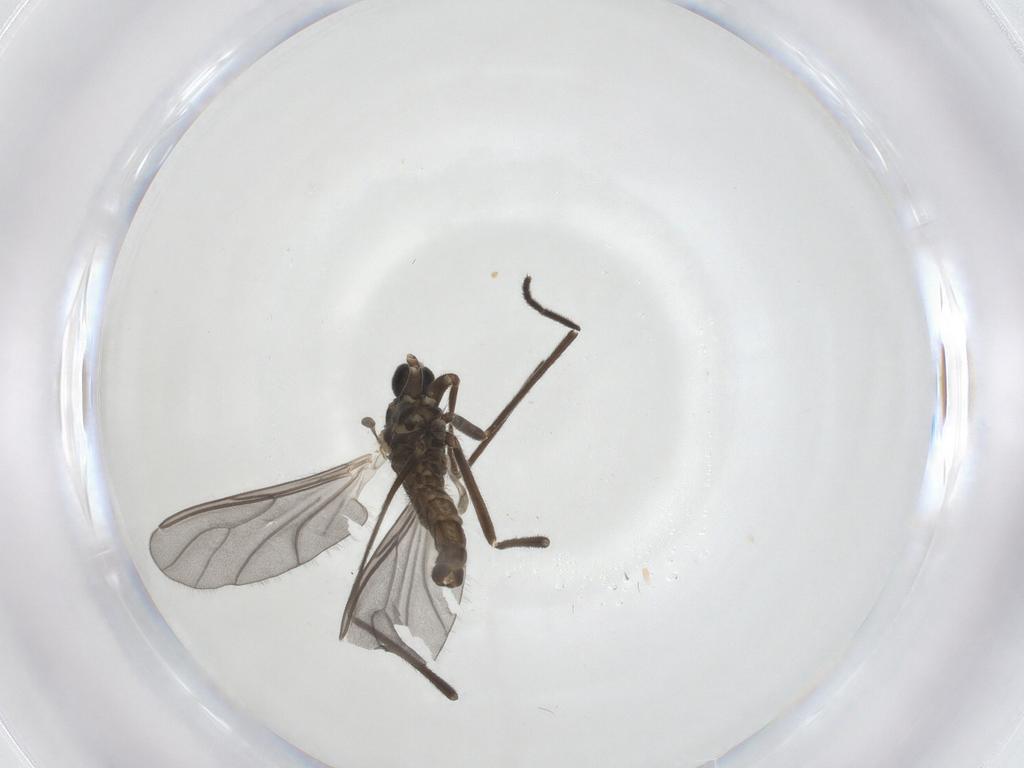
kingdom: Animalia
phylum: Arthropoda
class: Insecta
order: Diptera
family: Cecidomyiidae
